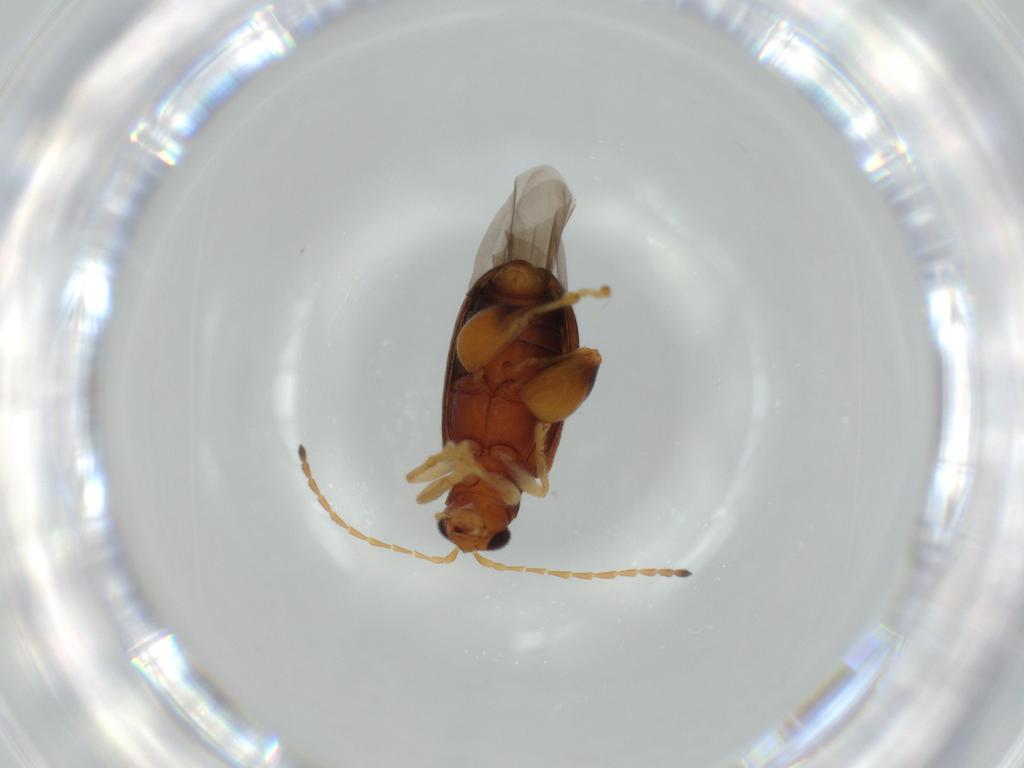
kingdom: Animalia
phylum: Arthropoda
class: Insecta
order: Coleoptera
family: Chrysomelidae
